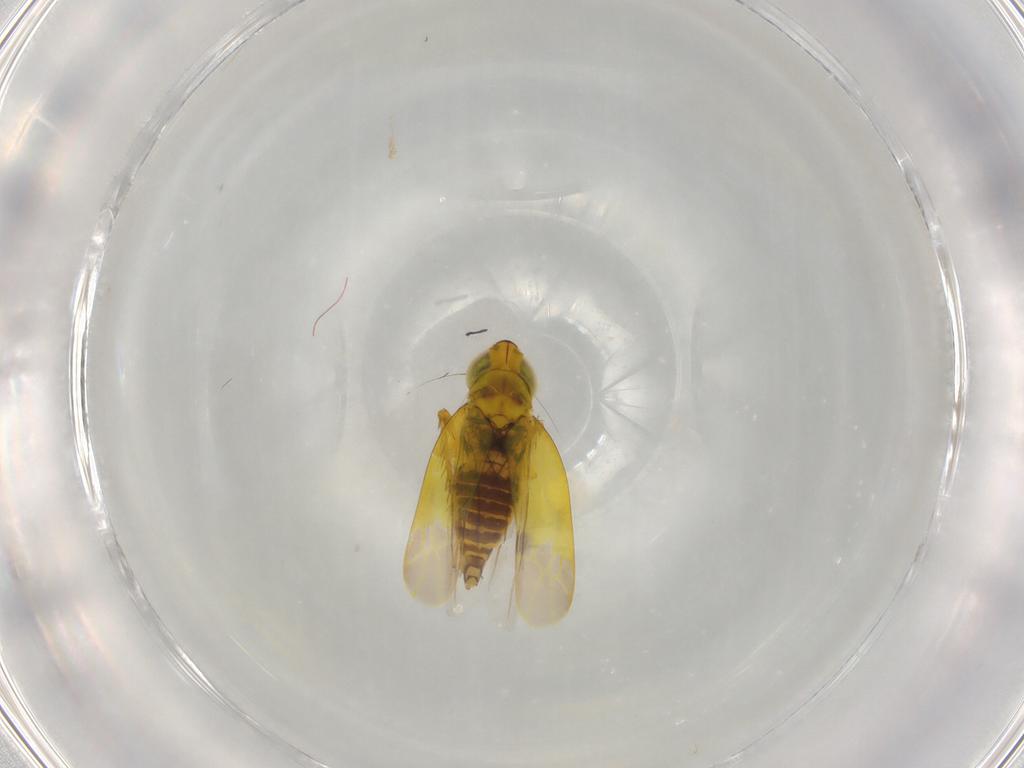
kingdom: Animalia
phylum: Arthropoda
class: Insecta
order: Hemiptera
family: Cicadellidae
